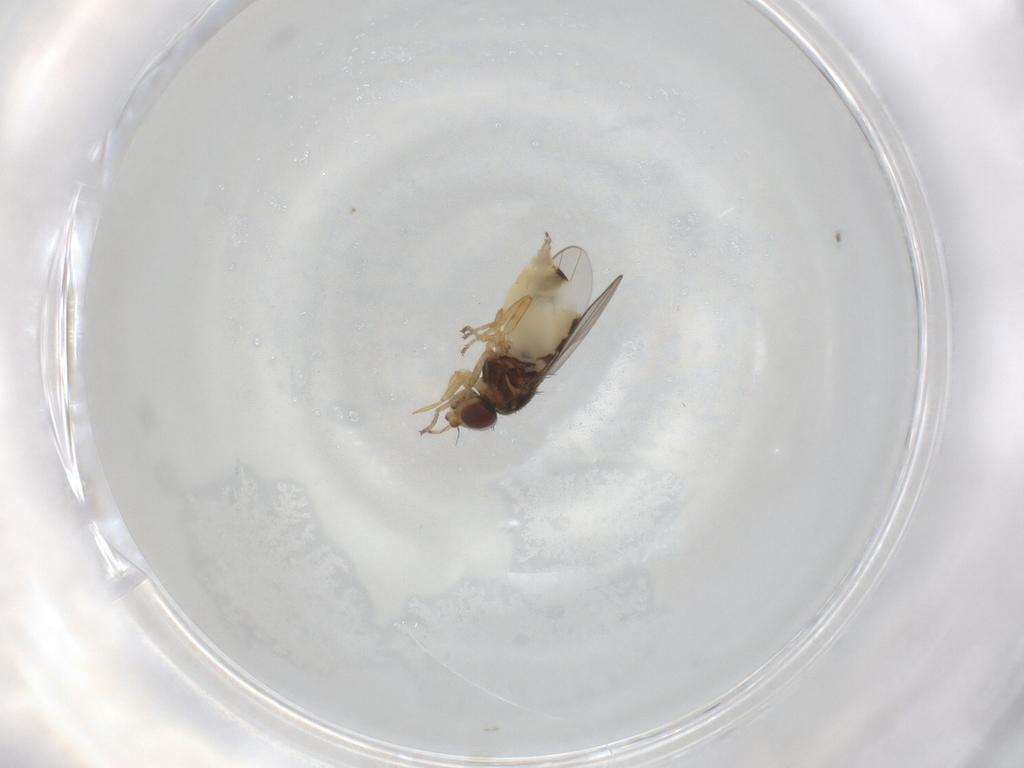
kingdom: Animalia
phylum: Arthropoda
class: Insecta
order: Diptera
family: Chloropidae
